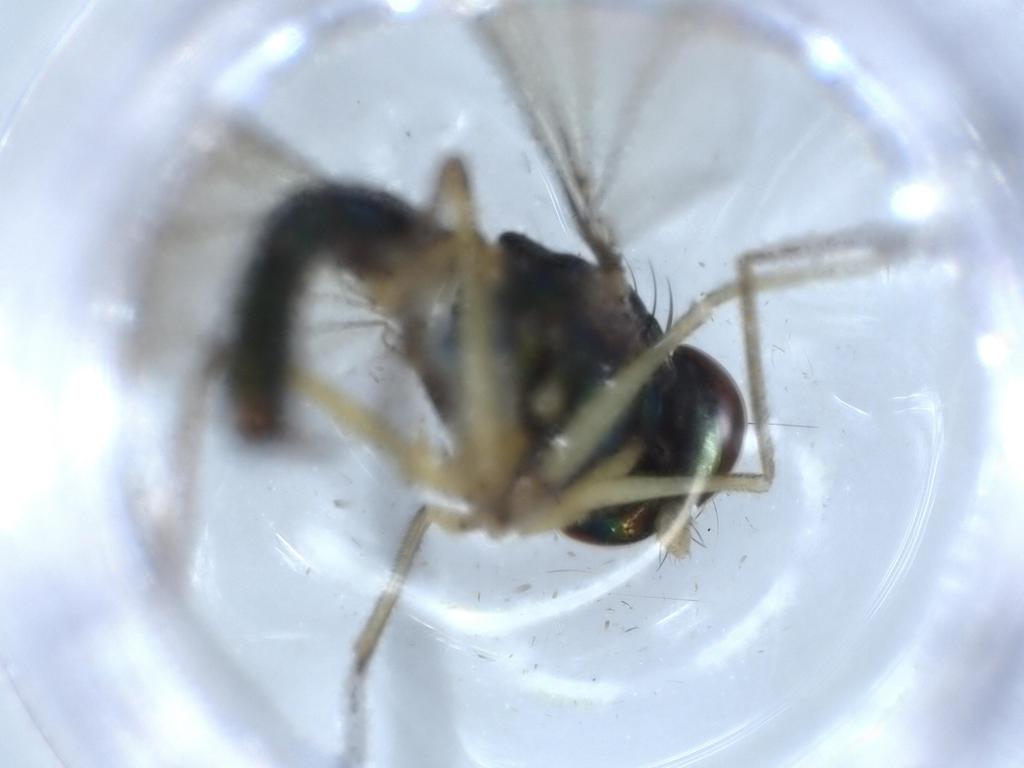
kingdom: Animalia
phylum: Arthropoda
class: Insecta
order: Diptera
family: Dolichopodidae
